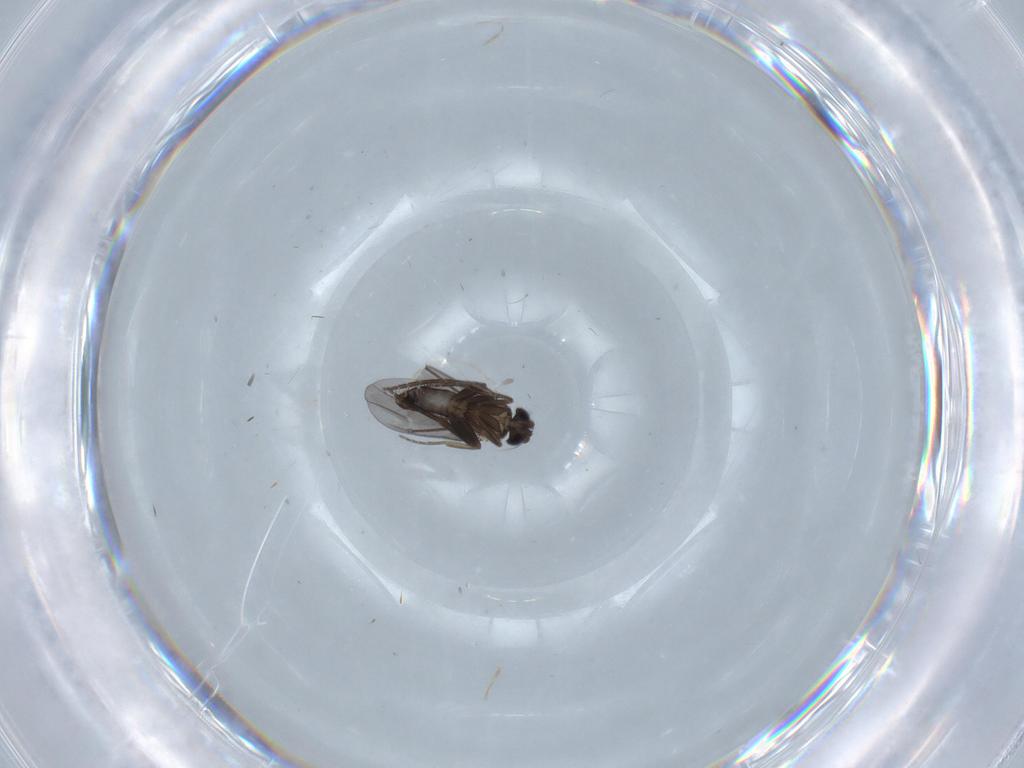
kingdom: Animalia
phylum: Arthropoda
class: Insecta
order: Diptera
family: Chironomidae
